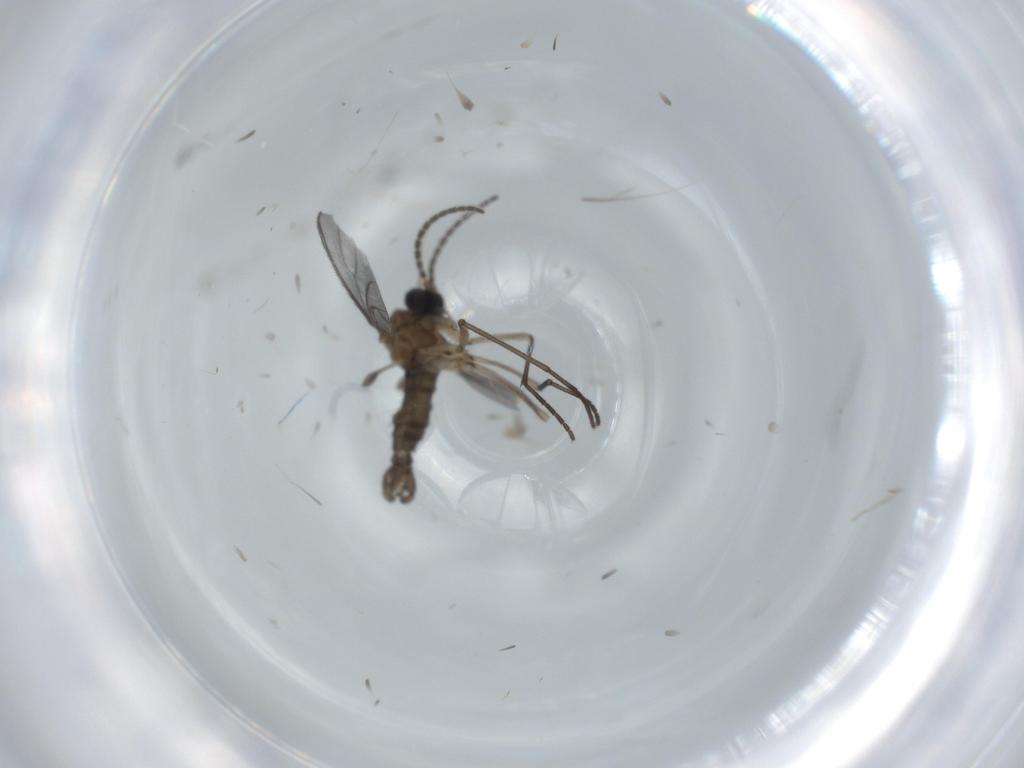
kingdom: Animalia
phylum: Arthropoda
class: Insecta
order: Diptera
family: Sciaridae
